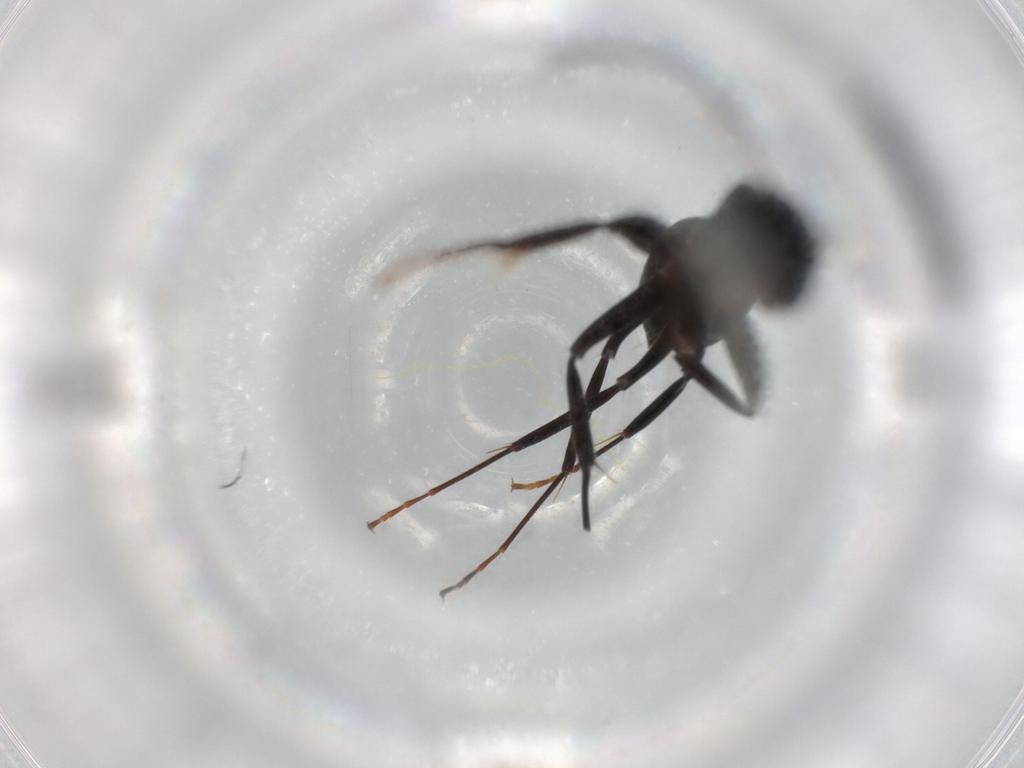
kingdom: Animalia
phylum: Arthropoda
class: Insecta
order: Hymenoptera
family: Formicidae
